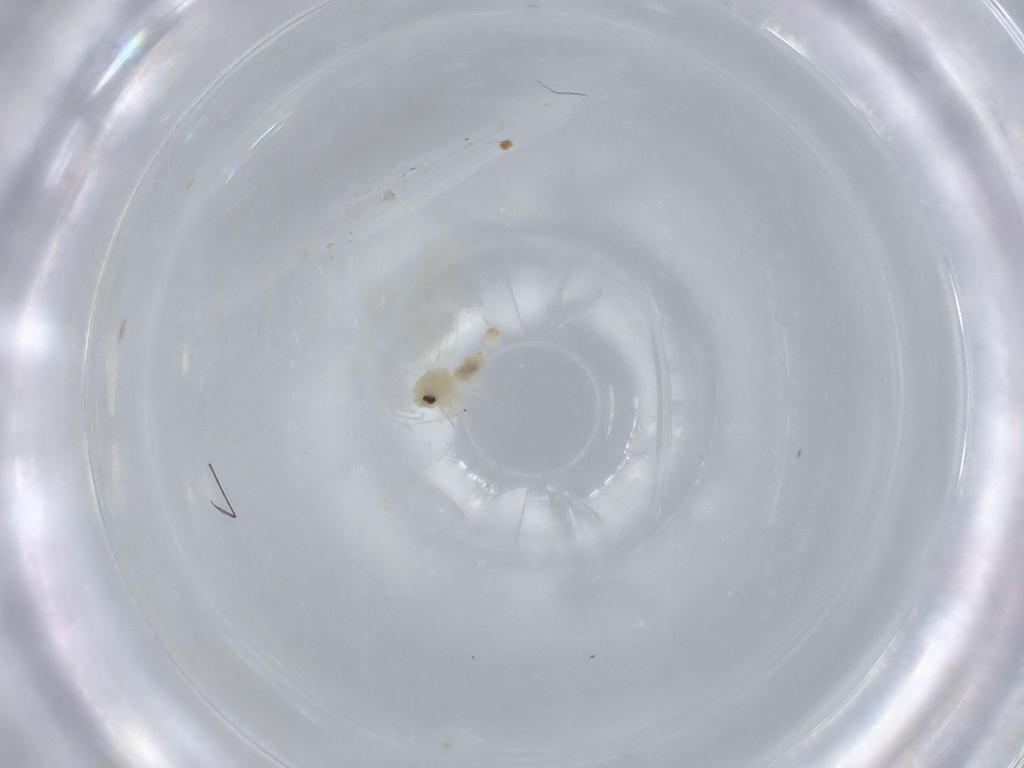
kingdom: Animalia
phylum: Arthropoda
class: Insecta
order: Hemiptera
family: Aleyrodidae
